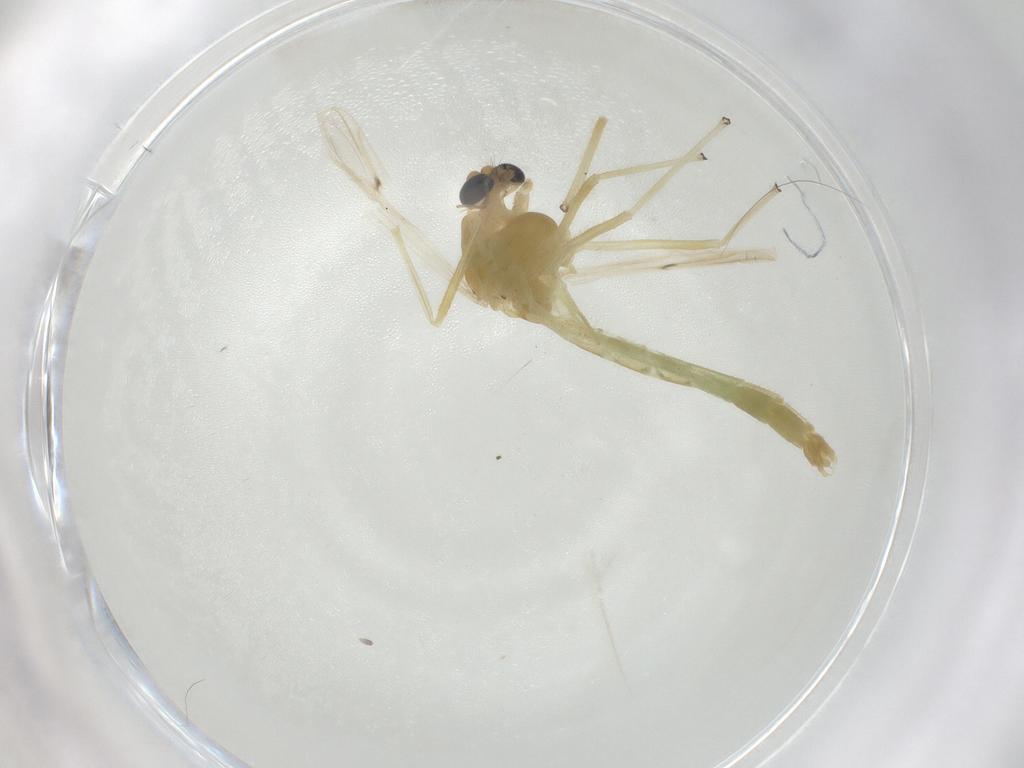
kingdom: Animalia
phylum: Arthropoda
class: Insecta
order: Diptera
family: Chironomidae
